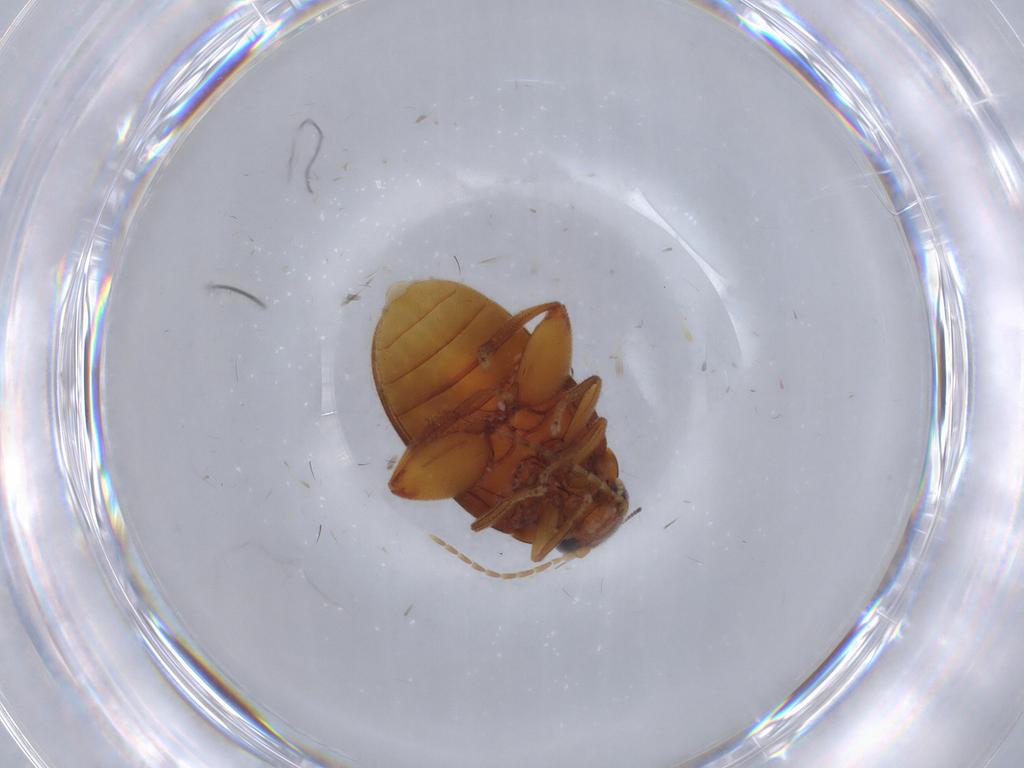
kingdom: Animalia
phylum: Arthropoda
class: Insecta
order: Coleoptera
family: Scirtidae
